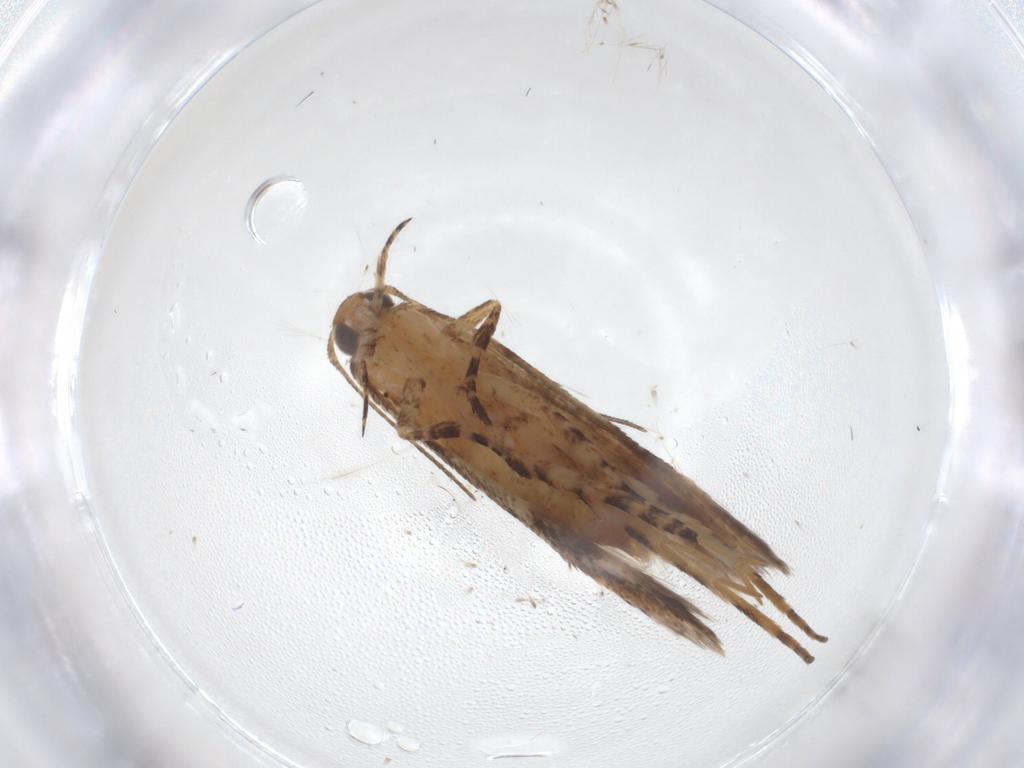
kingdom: Animalia
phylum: Arthropoda
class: Insecta
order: Lepidoptera
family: Gelechiidae
